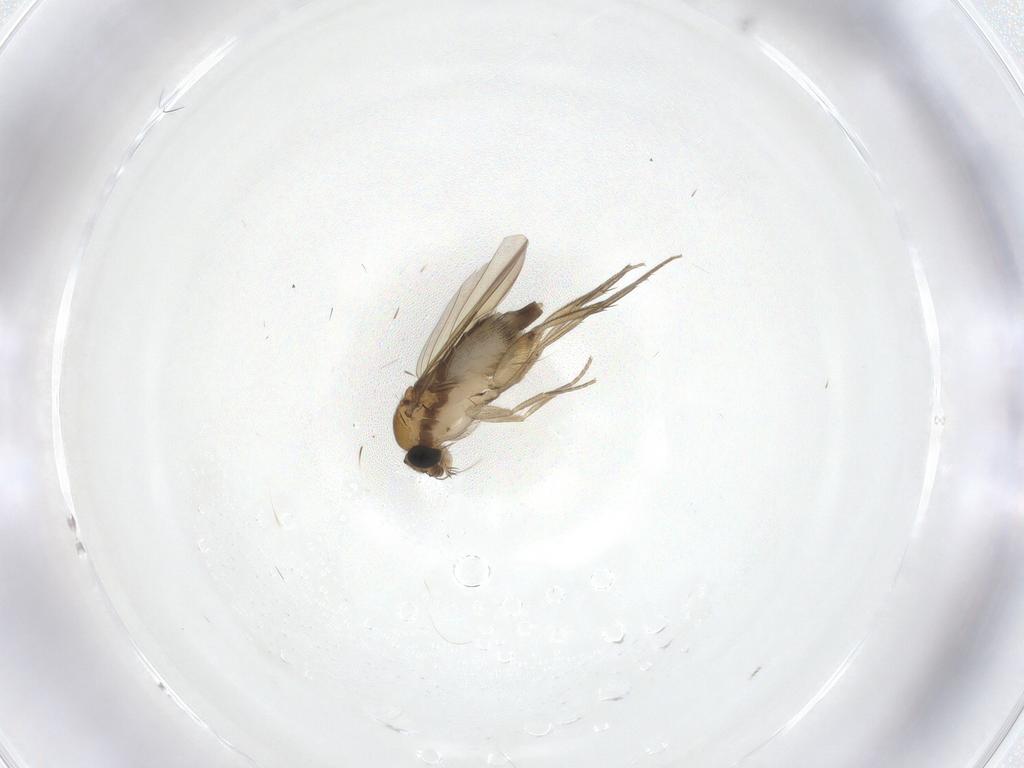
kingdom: Animalia
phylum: Arthropoda
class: Insecta
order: Diptera
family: Phoridae
